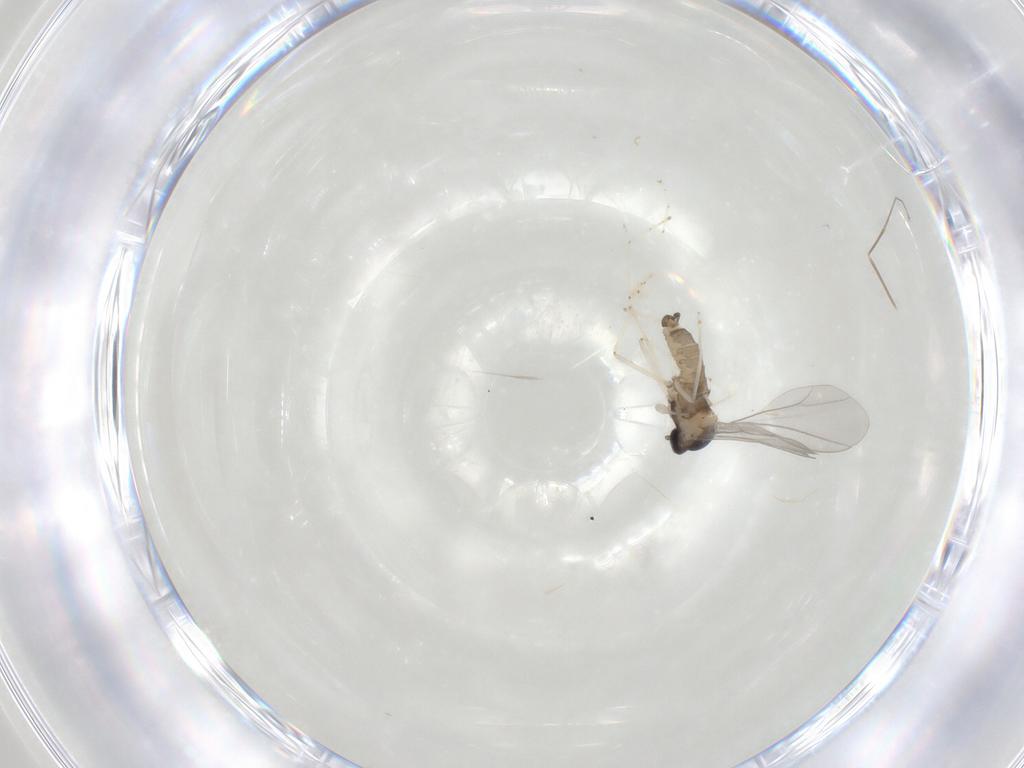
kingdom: Animalia
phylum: Arthropoda
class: Insecta
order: Diptera
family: Cecidomyiidae
